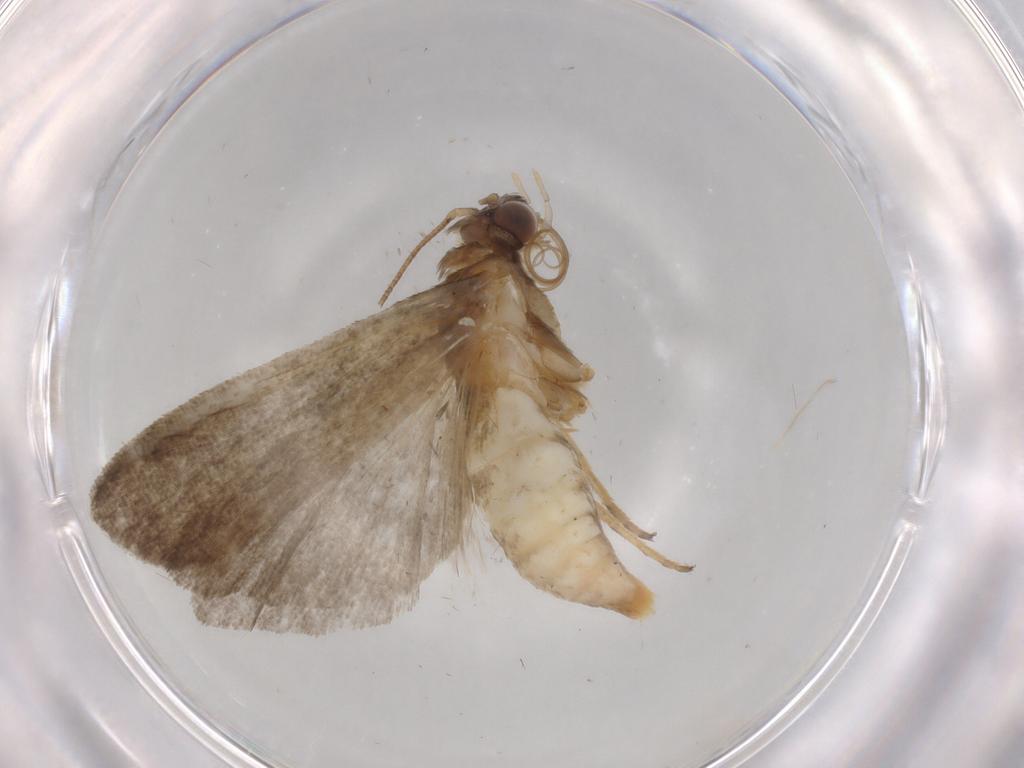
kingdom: Animalia
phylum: Arthropoda
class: Insecta
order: Lepidoptera
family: Noctuidae
